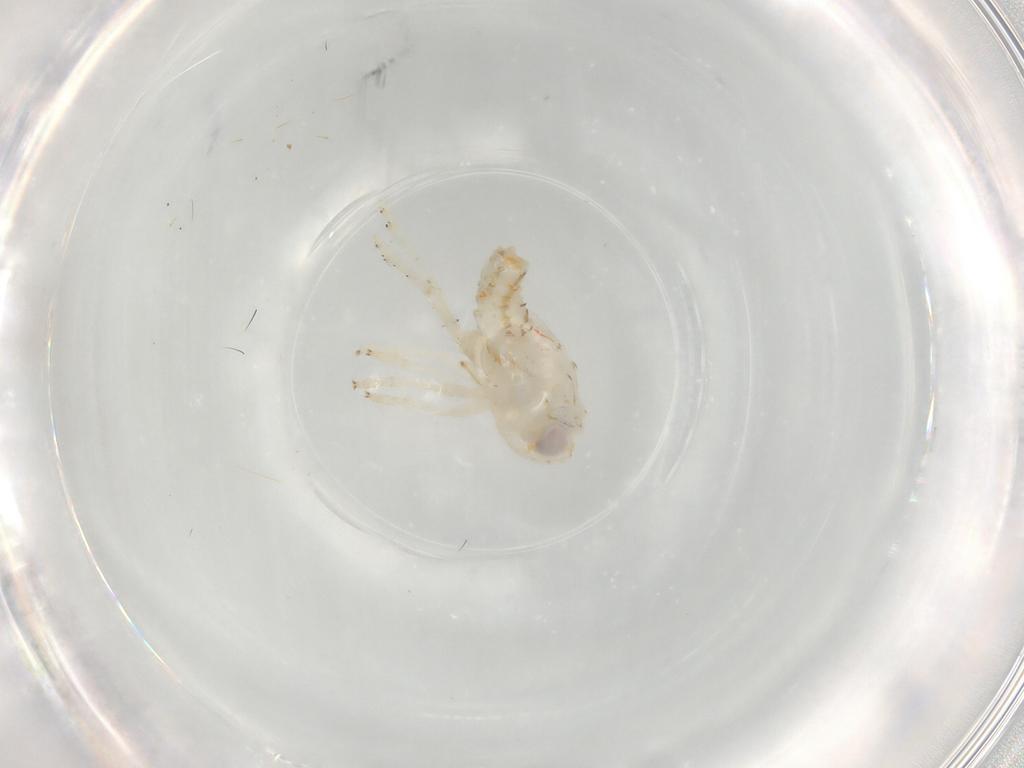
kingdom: Animalia
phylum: Arthropoda
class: Insecta
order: Hemiptera
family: Nogodinidae
